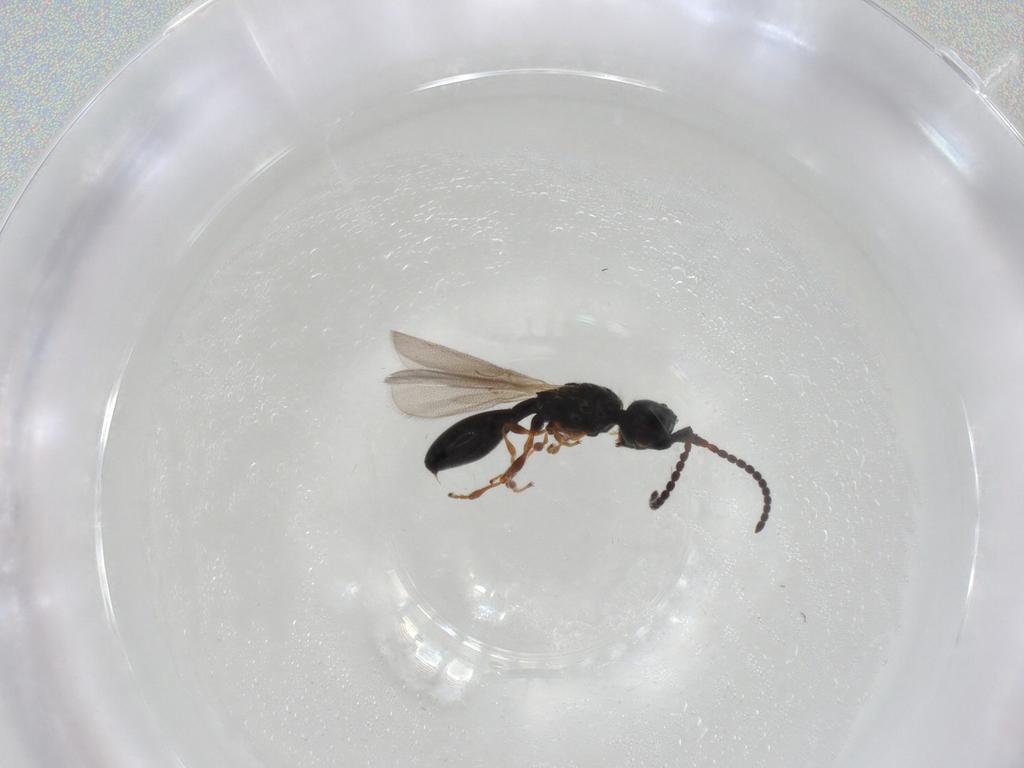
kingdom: Animalia
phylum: Arthropoda
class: Insecta
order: Hymenoptera
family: Diapriidae
